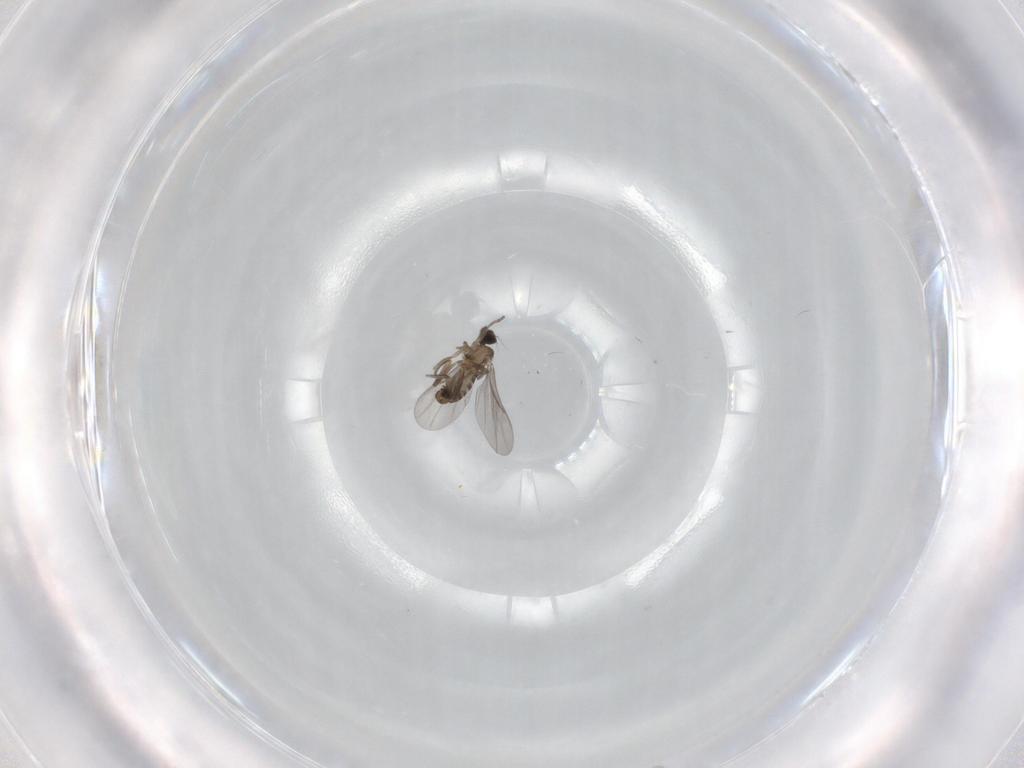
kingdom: Animalia
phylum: Arthropoda
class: Insecta
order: Diptera
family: Phoridae
